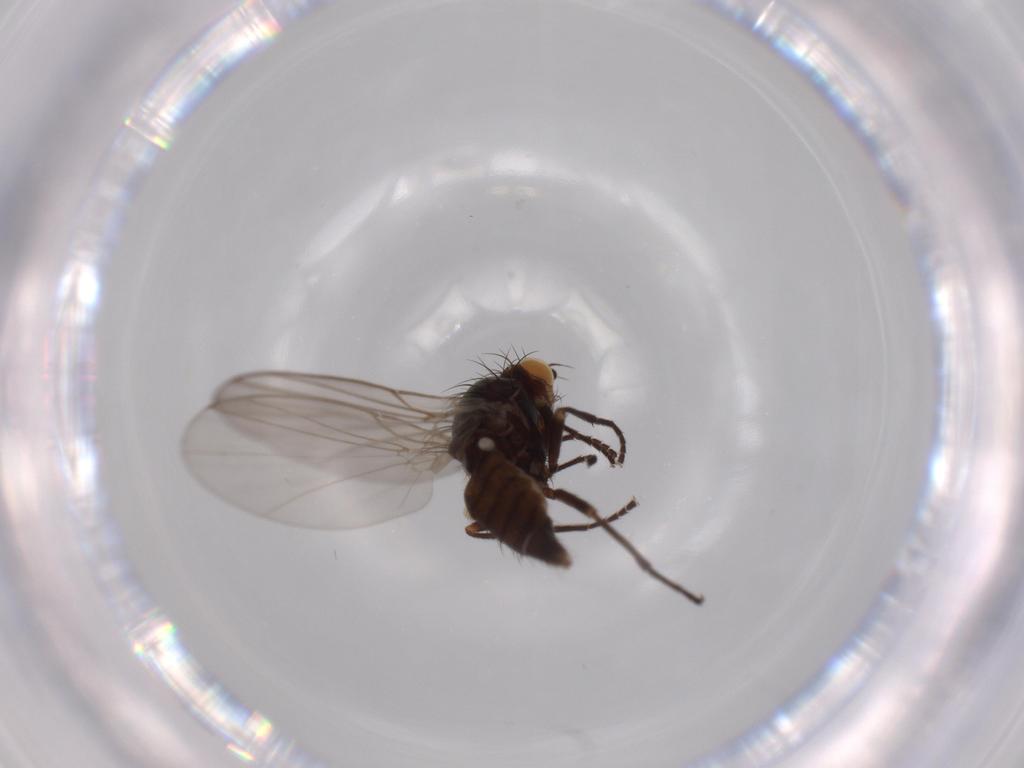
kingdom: Animalia
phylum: Arthropoda
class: Insecta
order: Diptera
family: Agromyzidae
